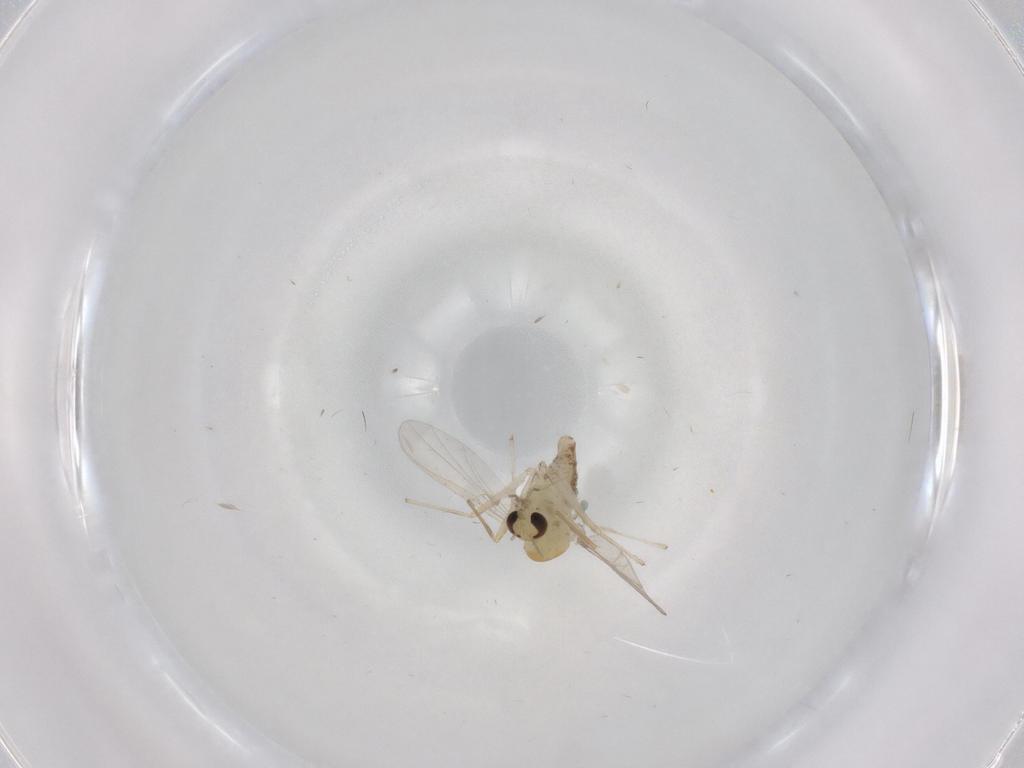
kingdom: Animalia
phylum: Arthropoda
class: Insecta
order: Diptera
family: Chironomidae
